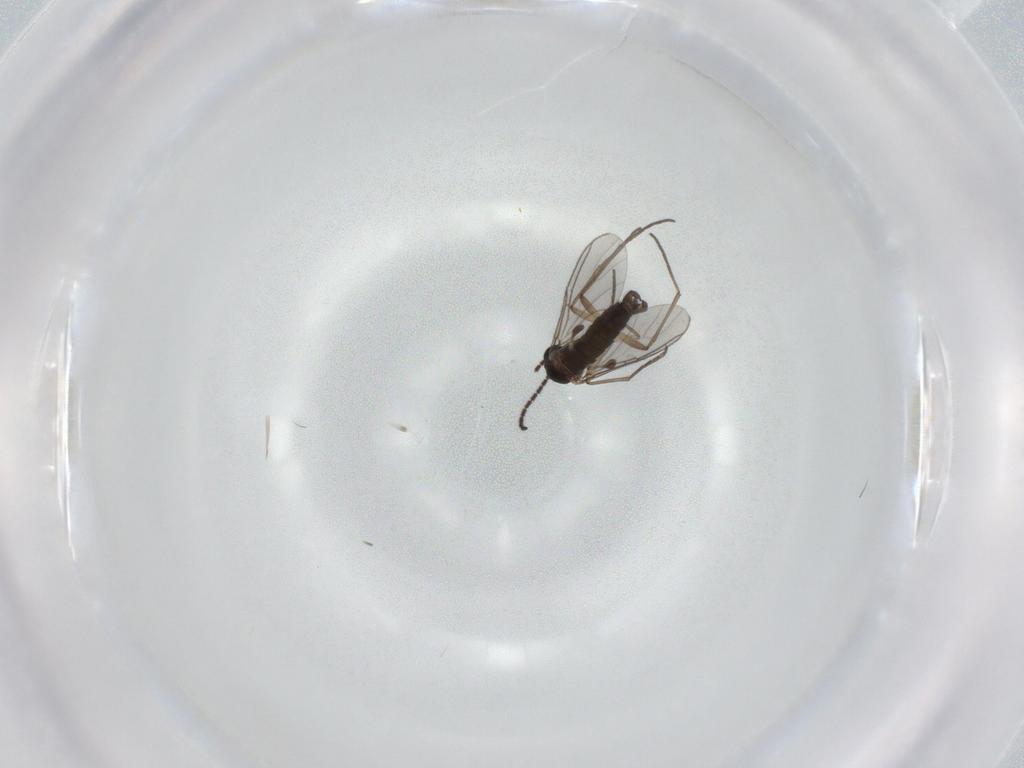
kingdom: Animalia
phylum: Arthropoda
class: Insecta
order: Diptera
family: Sciaridae
